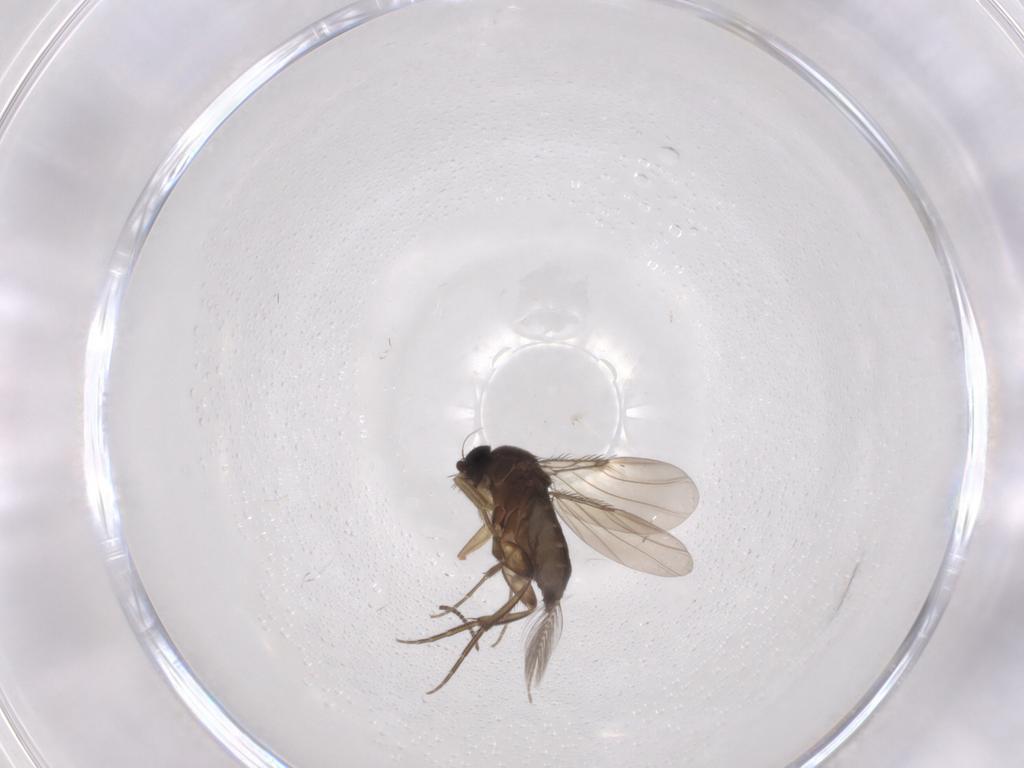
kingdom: Animalia
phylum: Arthropoda
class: Insecta
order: Diptera
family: Phoridae
